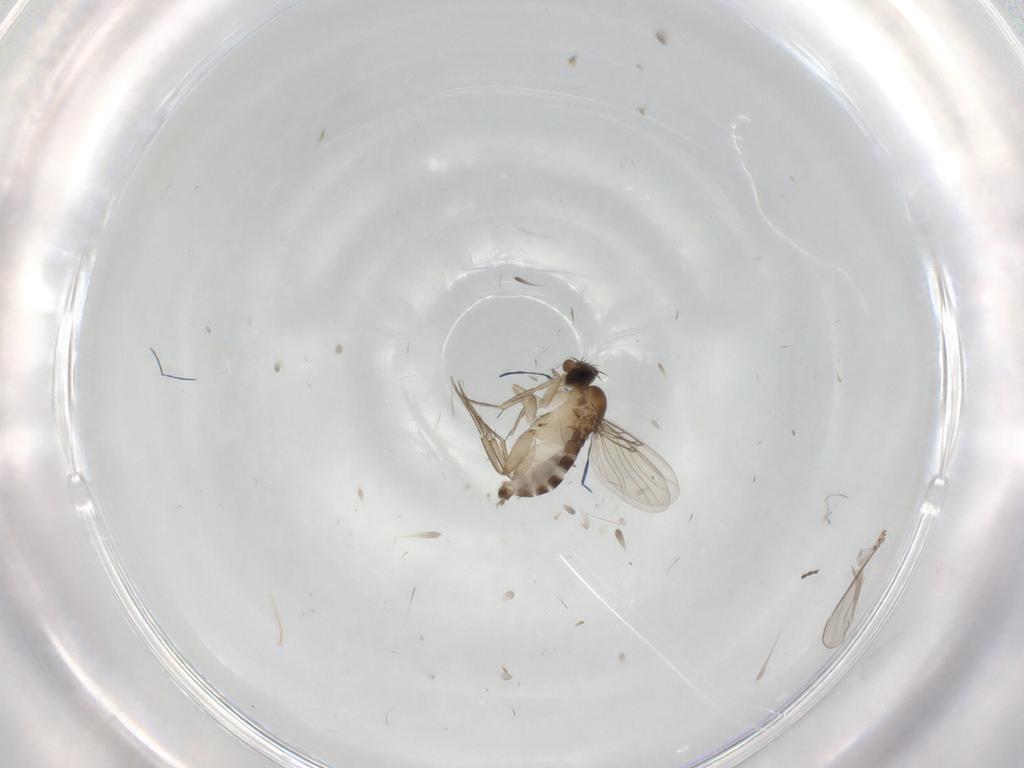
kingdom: Animalia
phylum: Arthropoda
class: Insecta
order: Diptera
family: Phoridae
